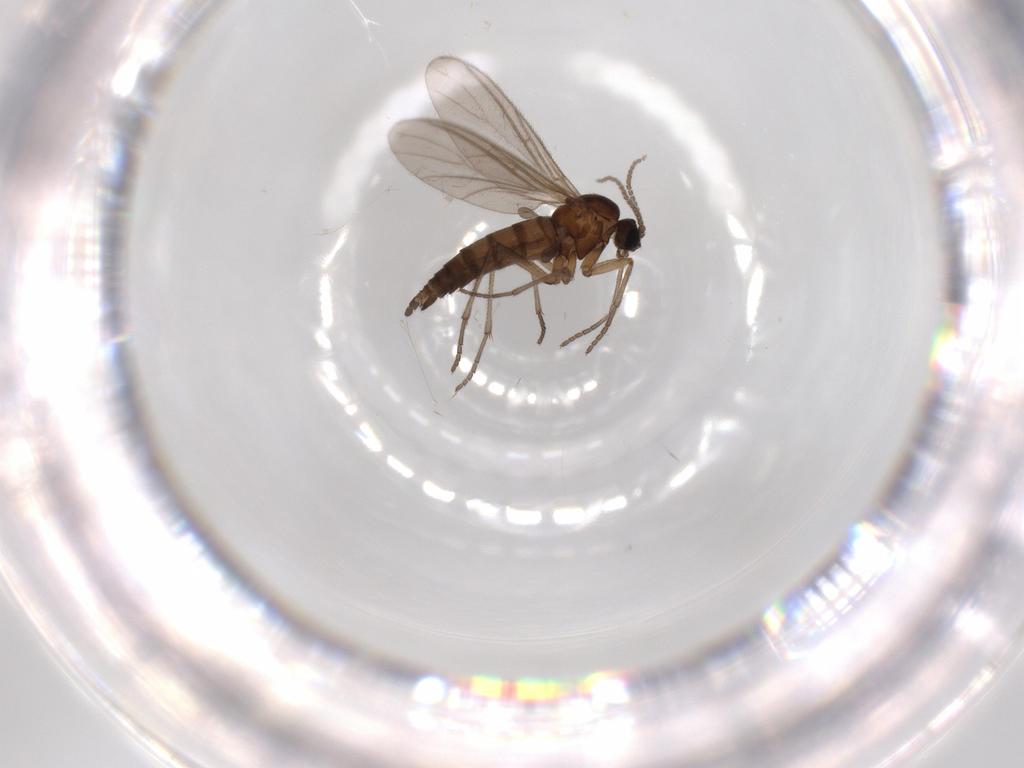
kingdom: Animalia
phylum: Arthropoda
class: Insecta
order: Diptera
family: Sciaridae
